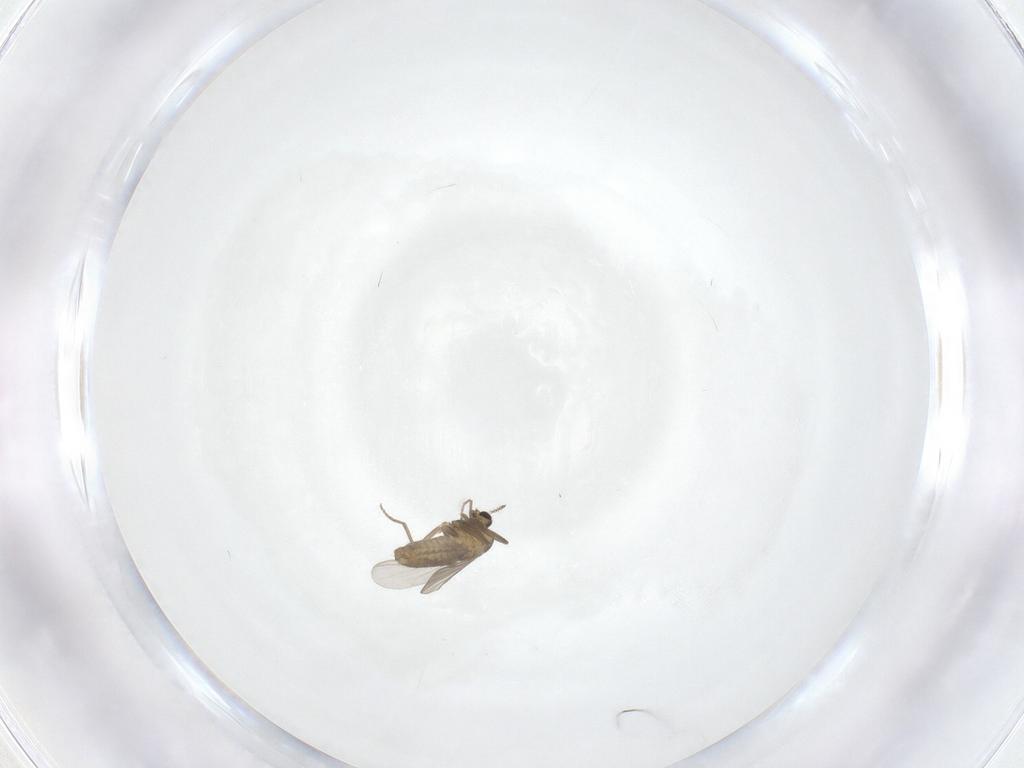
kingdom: Animalia
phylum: Arthropoda
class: Insecta
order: Diptera
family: Chironomidae
